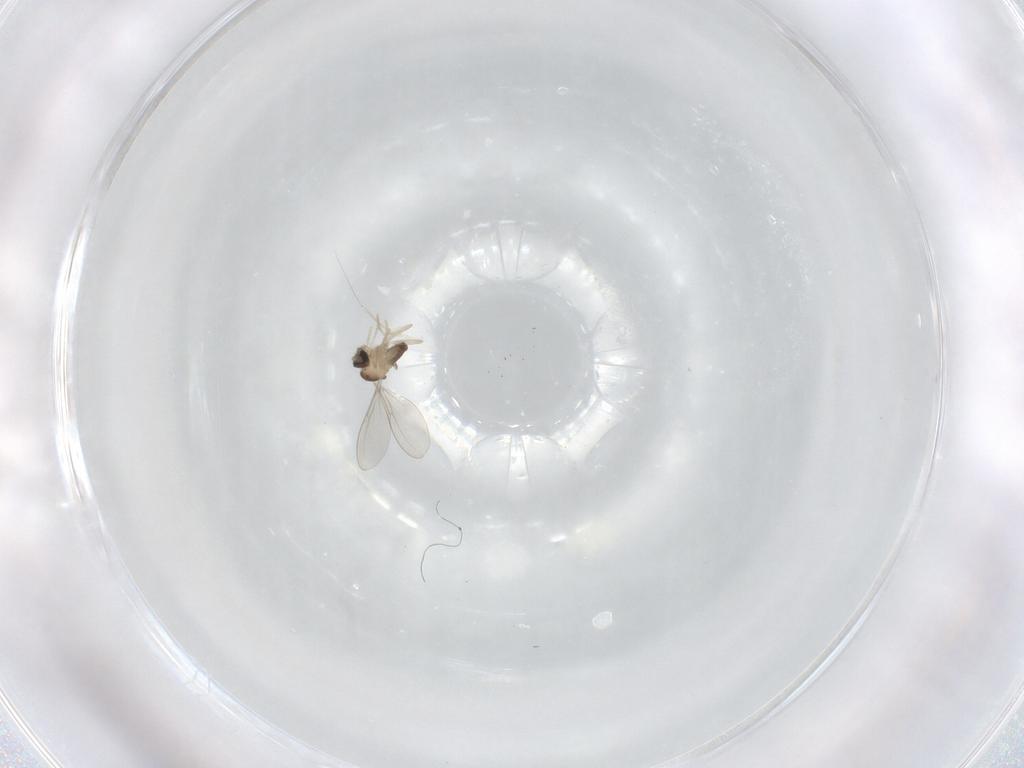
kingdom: Animalia
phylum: Arthropoda
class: Insecta
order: Diptera
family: Cecidomyiidae
